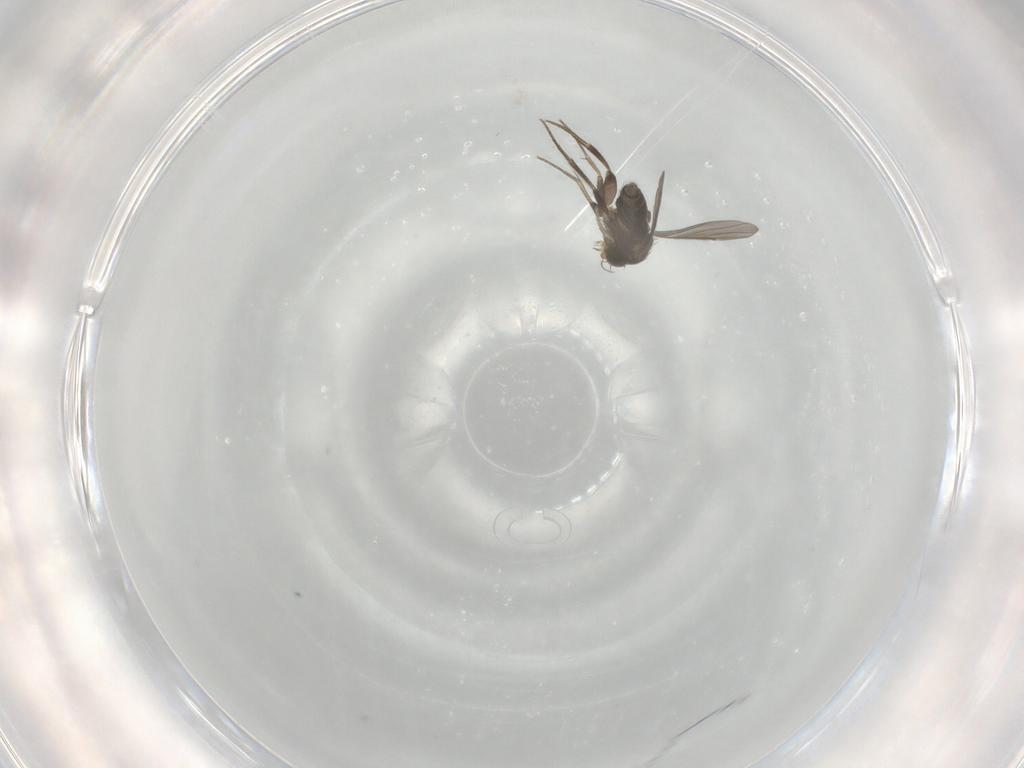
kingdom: Animalia
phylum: Arthropoda
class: Insecta
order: Diptera
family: Phoridae
